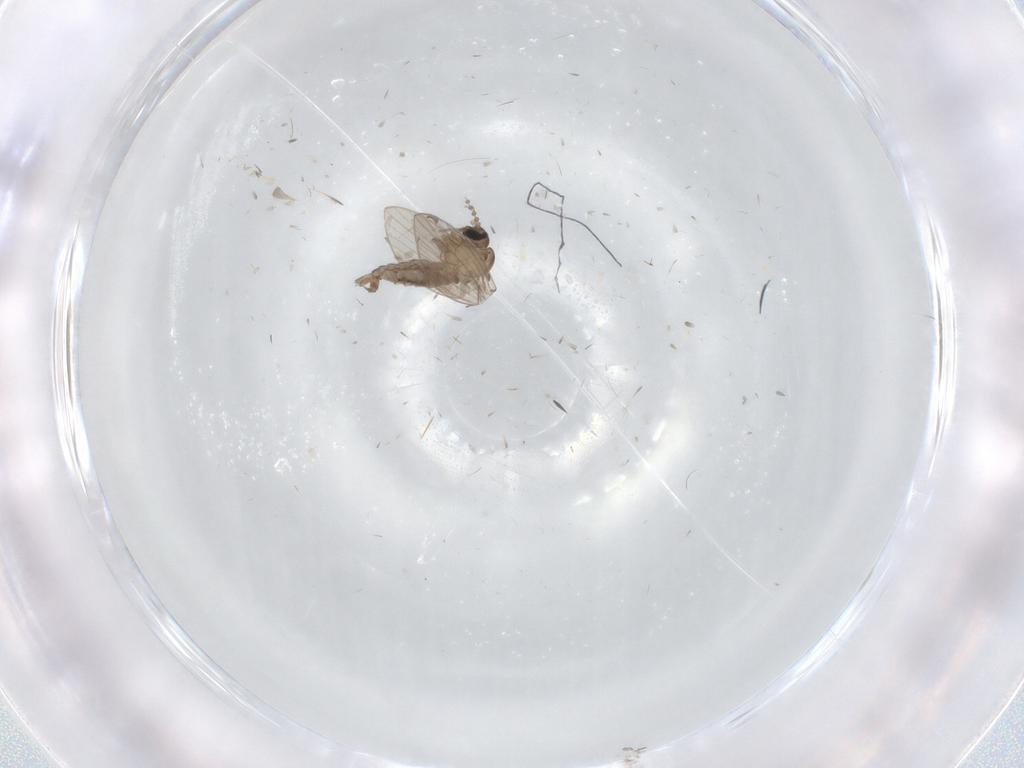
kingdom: Animalia
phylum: Arthropoda
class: Insecta
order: Diptera
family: Psychodidae
